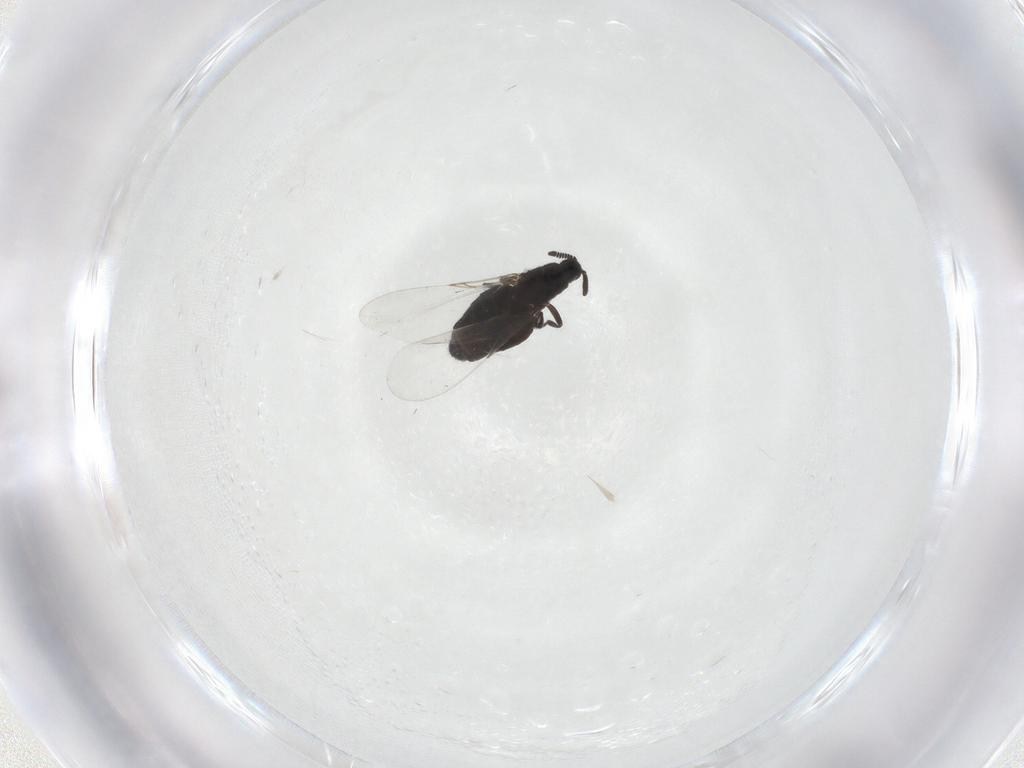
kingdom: Animalia
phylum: Arthropoda
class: Insecta
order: Diptera
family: Scatopsidae
